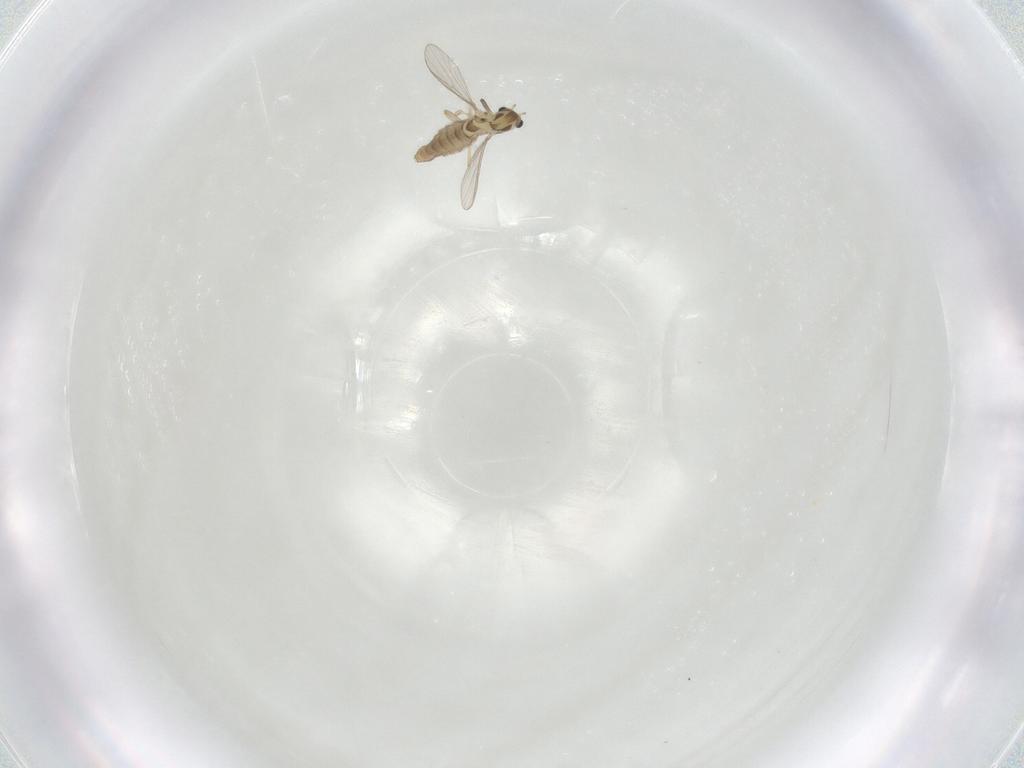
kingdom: Animalia
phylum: Arthropoda
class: Insecta
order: Diptera
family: Chironomidae
